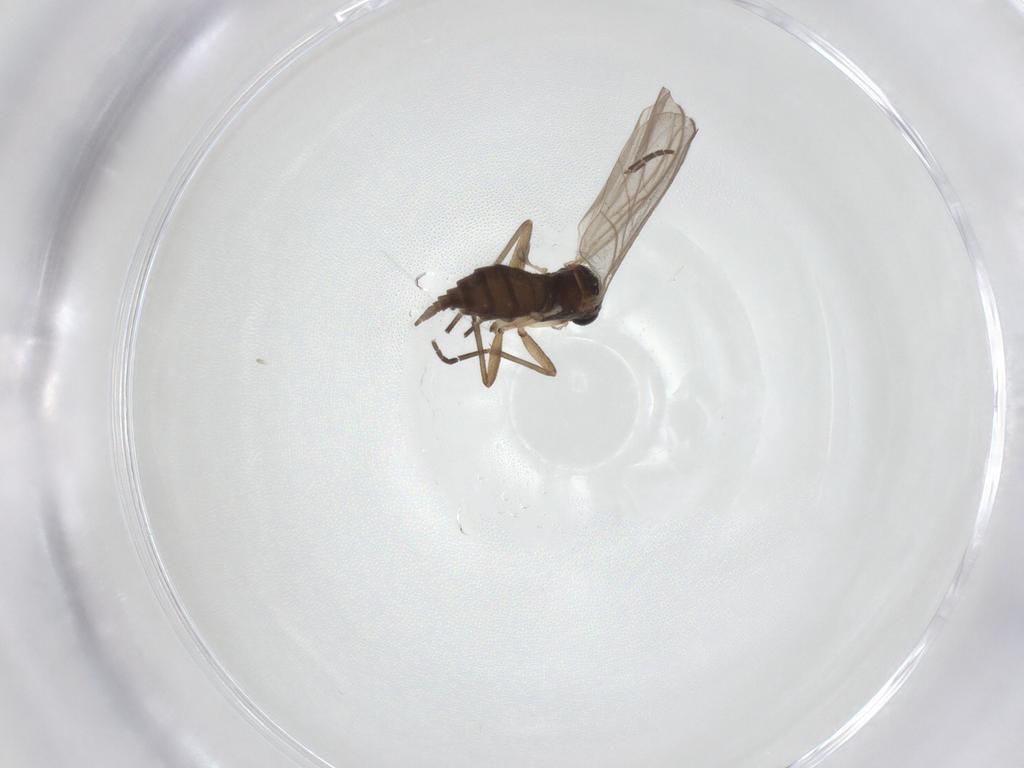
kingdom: Animalia
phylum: Arthropoda
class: Insecta
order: Diptera
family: Sciaridae
